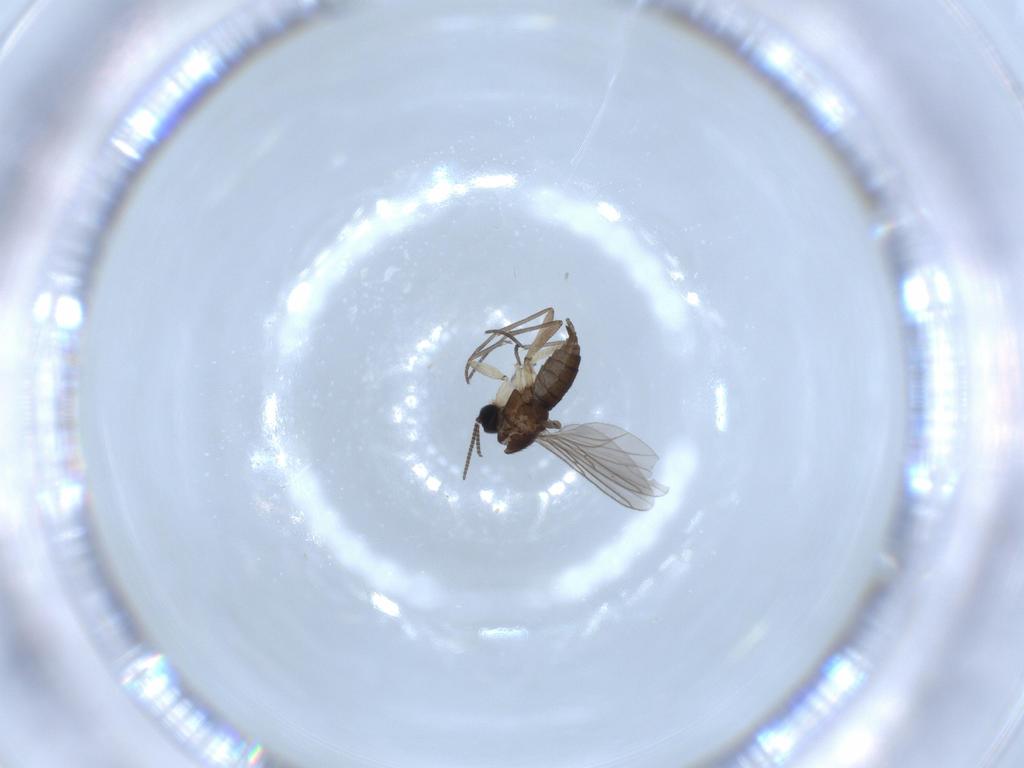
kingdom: Animalia
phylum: Arthropoda
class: Insecta
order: Diptera
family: Sciaridae
